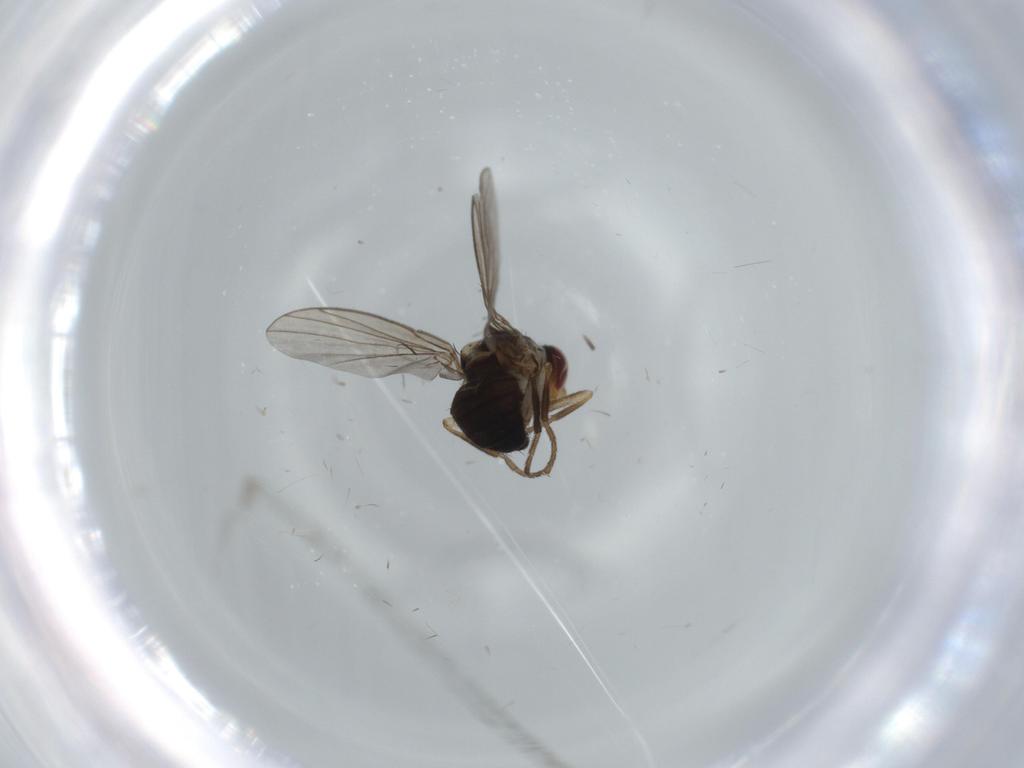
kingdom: Animalia
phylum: Arthropoda
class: Insecta
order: Diptera
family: Agromyzidae
